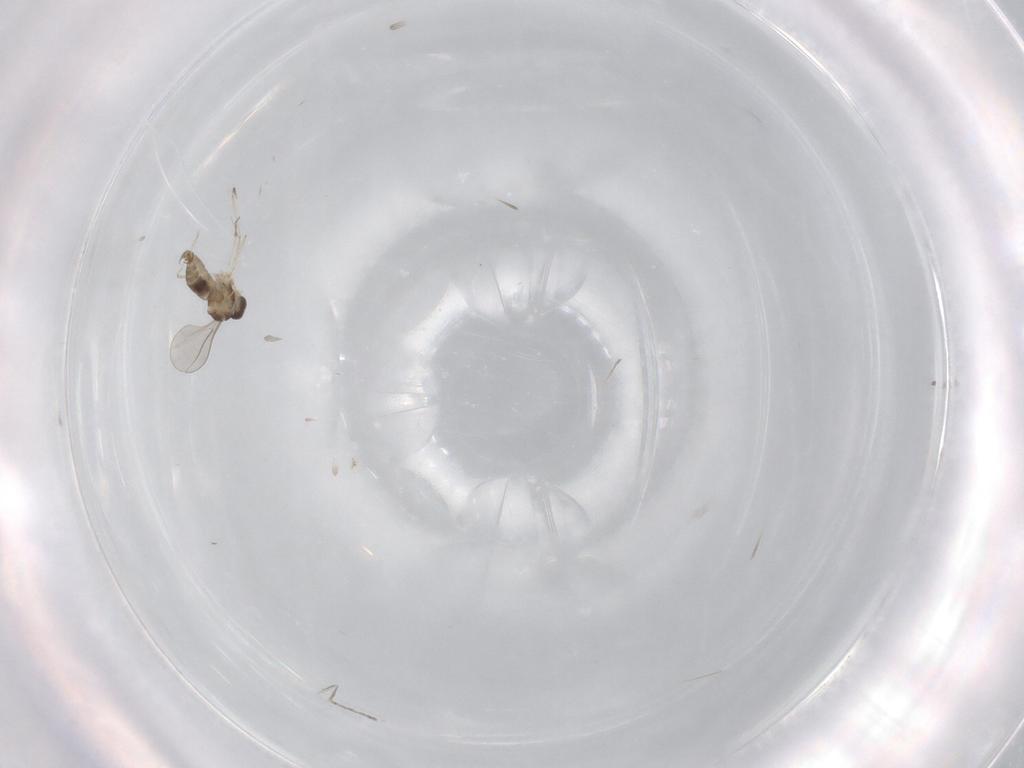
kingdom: Animalia
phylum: Arthropoda
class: Insecta
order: Diptera
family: Cecidomyiidae
